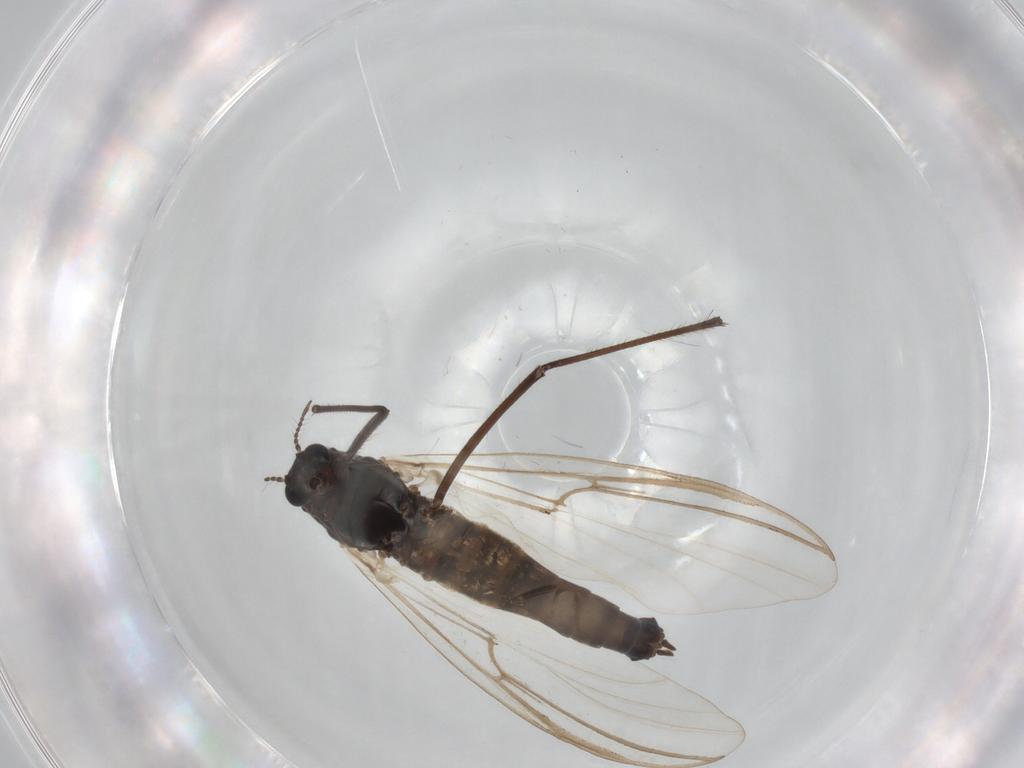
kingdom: Animalia
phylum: Arthropoda
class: Insecta
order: Diptera
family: Chironomidae
